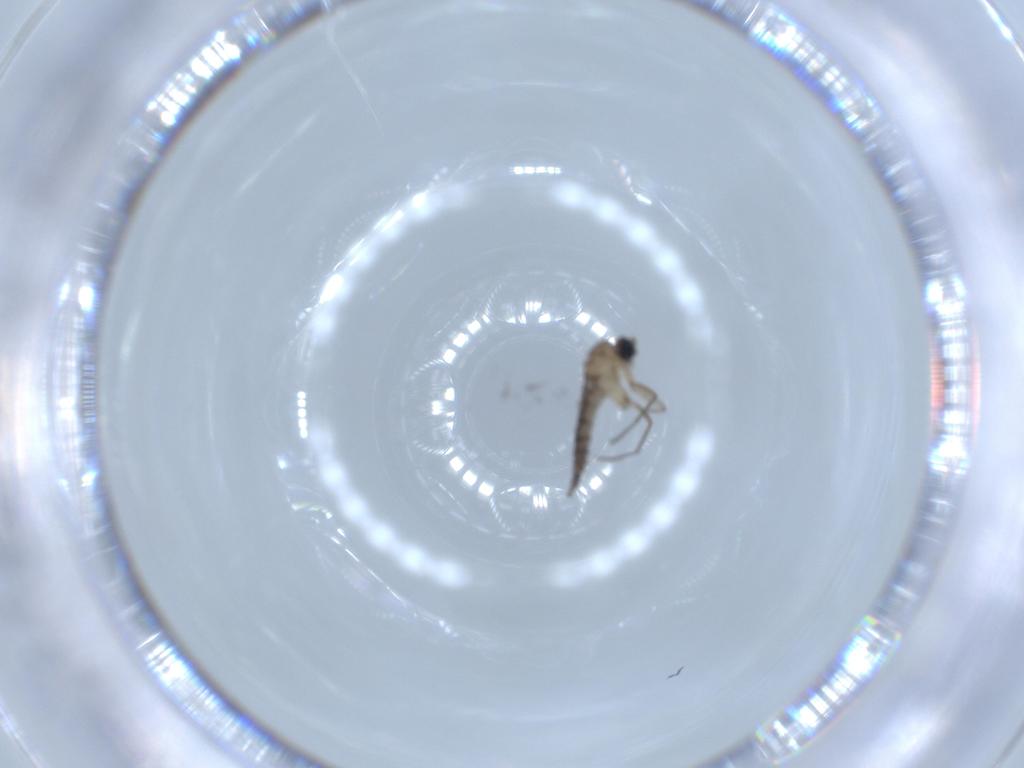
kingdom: Animalia
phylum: Arthropoda
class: Insecta
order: Diptera
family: Sciaridae
